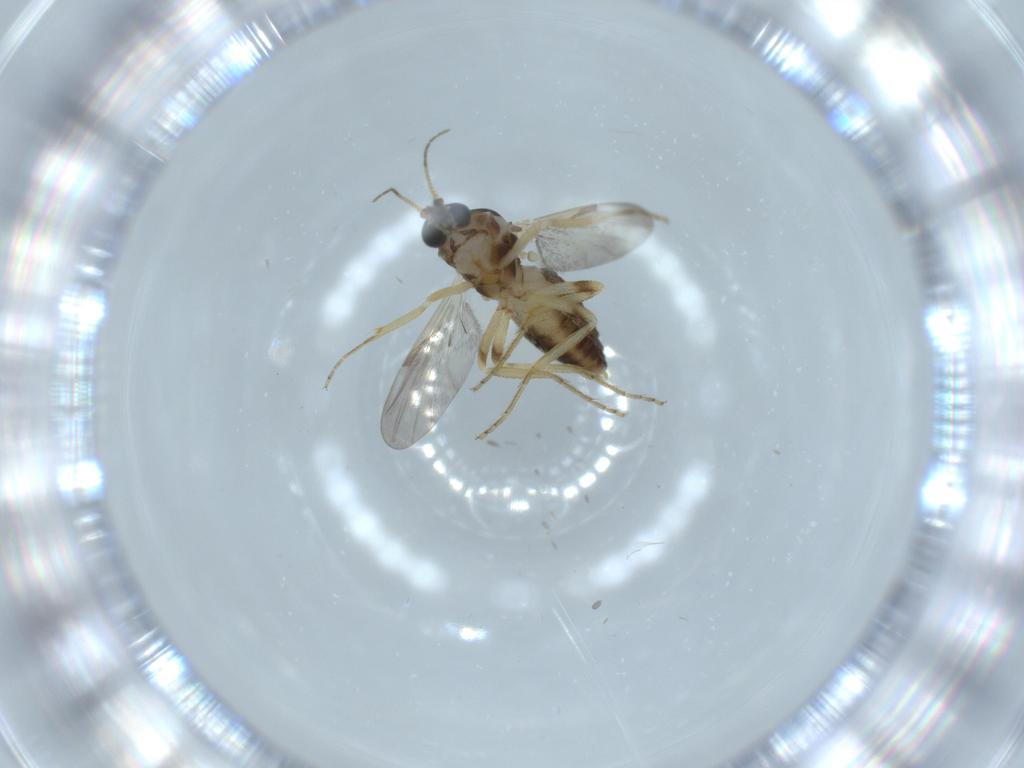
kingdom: Animalia
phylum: Arthropoda
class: Insecta
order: Diptera
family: Ceratopogonidae
